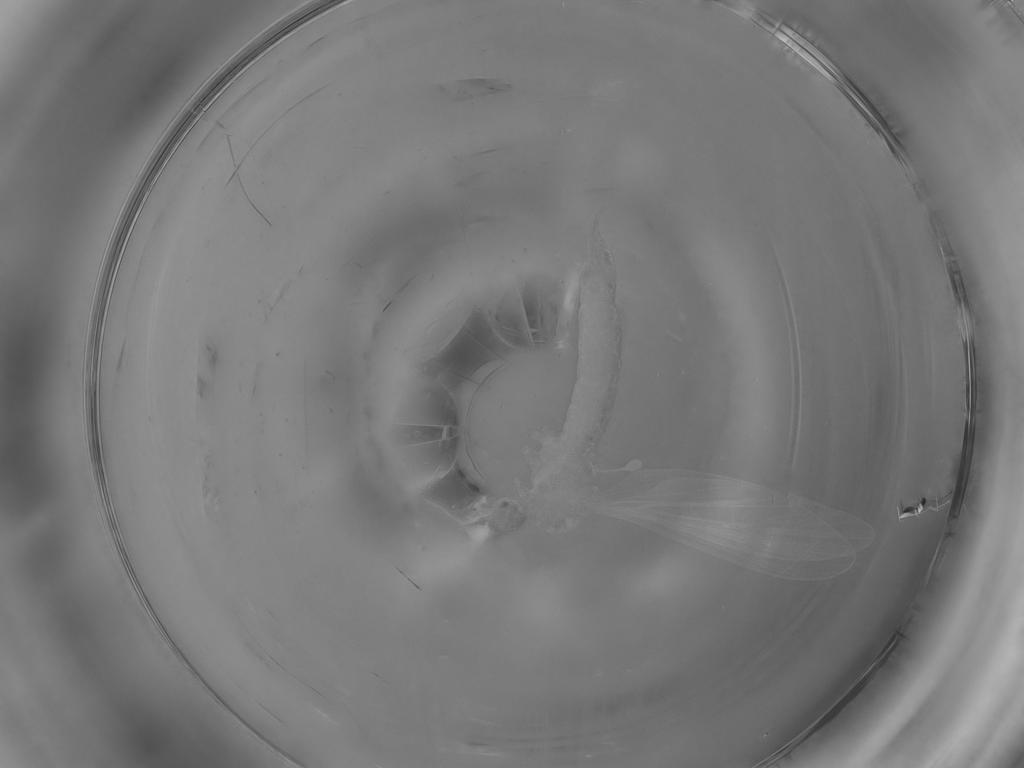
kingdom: Animalia
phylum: Arthropoda
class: Insecta
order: Diptera
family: Limoniidae
